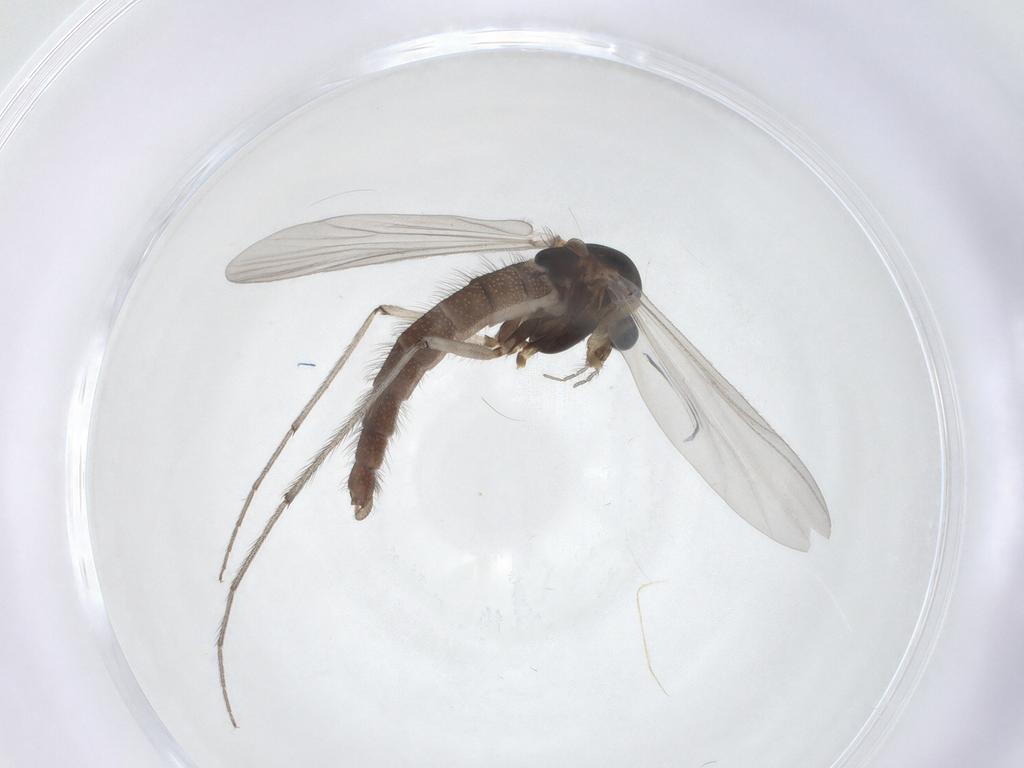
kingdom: Animalia
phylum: Arthropoda
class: Insecta
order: Diptera
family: Chironomidae
